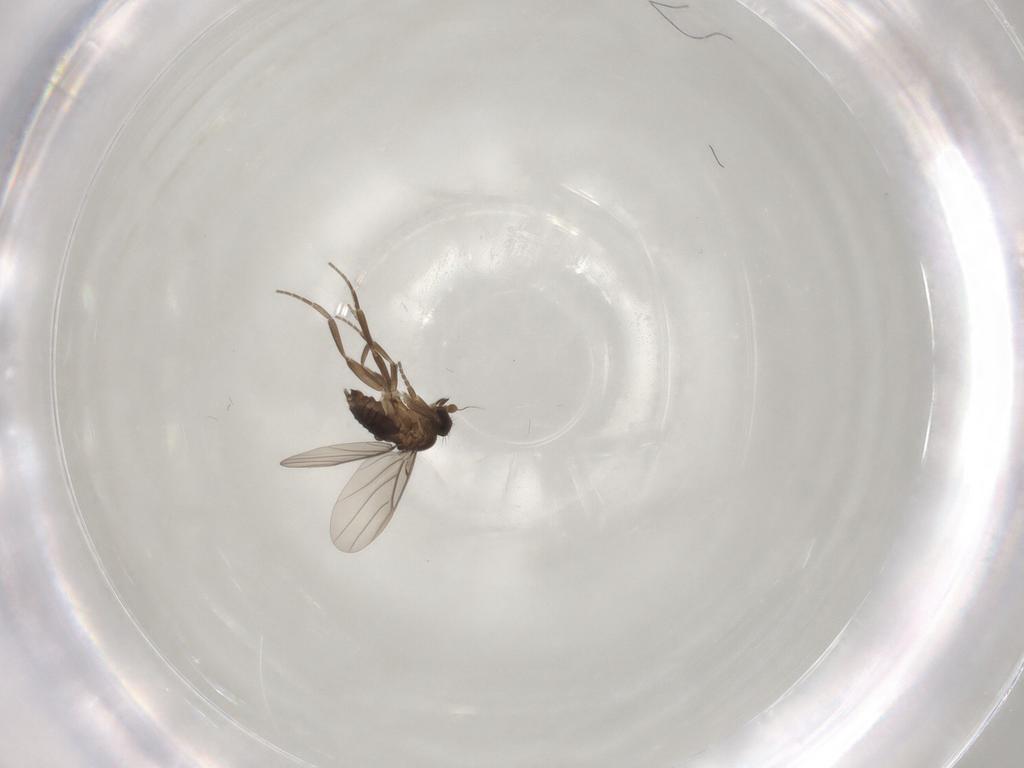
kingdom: Animalia
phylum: Arthropoda
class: Insecta
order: Diptera
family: Phoridae
